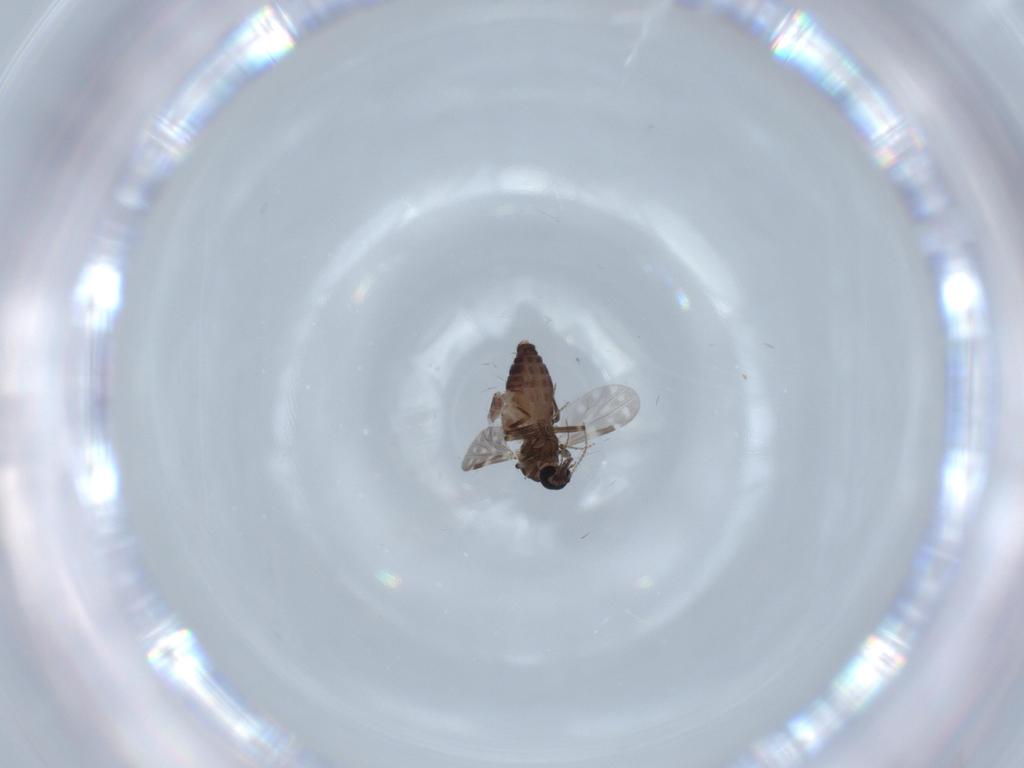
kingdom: Animalia
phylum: Arthropoda
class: Insecta
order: Diptera
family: Ceratopogonidae
